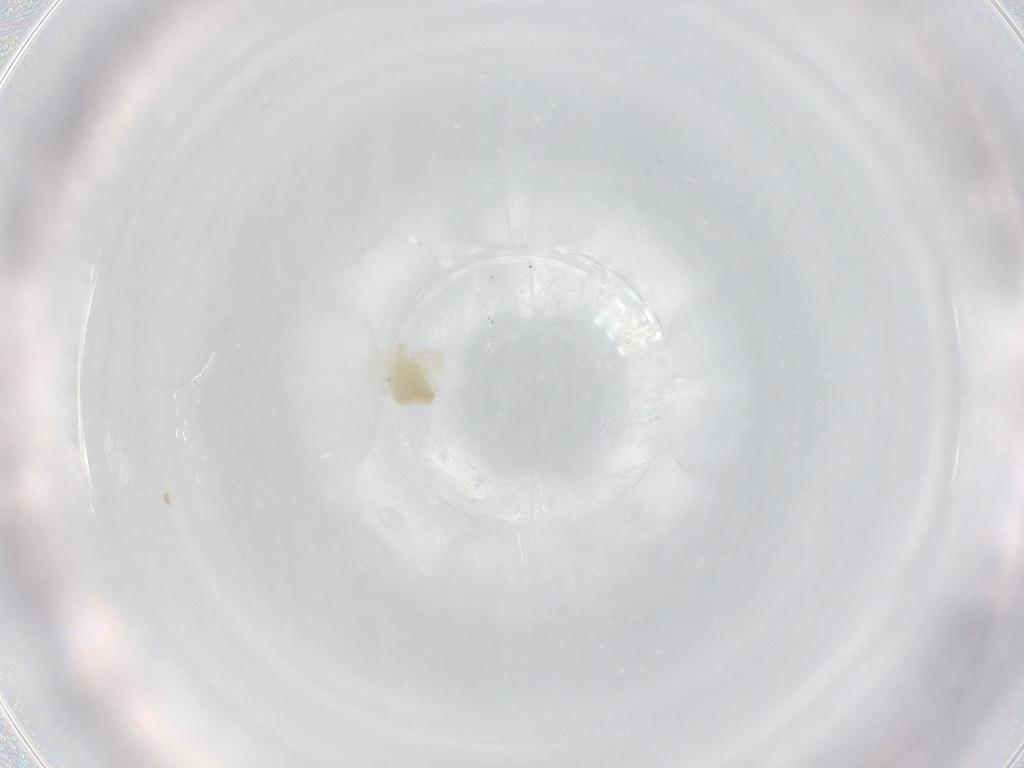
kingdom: Animalia
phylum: Arthropoda
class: Arachnida
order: Trombidiformes
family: Anystidae
